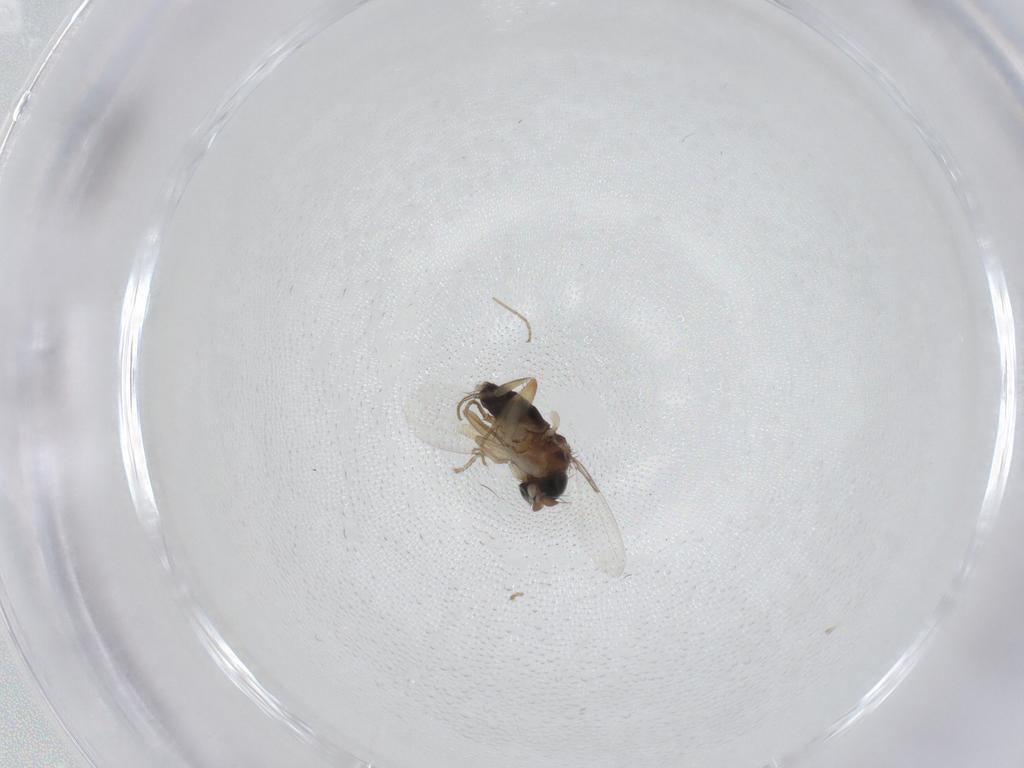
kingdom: Animalia
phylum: Arthropoda
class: Insecta
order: Diptera
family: Cecidomyiidae
